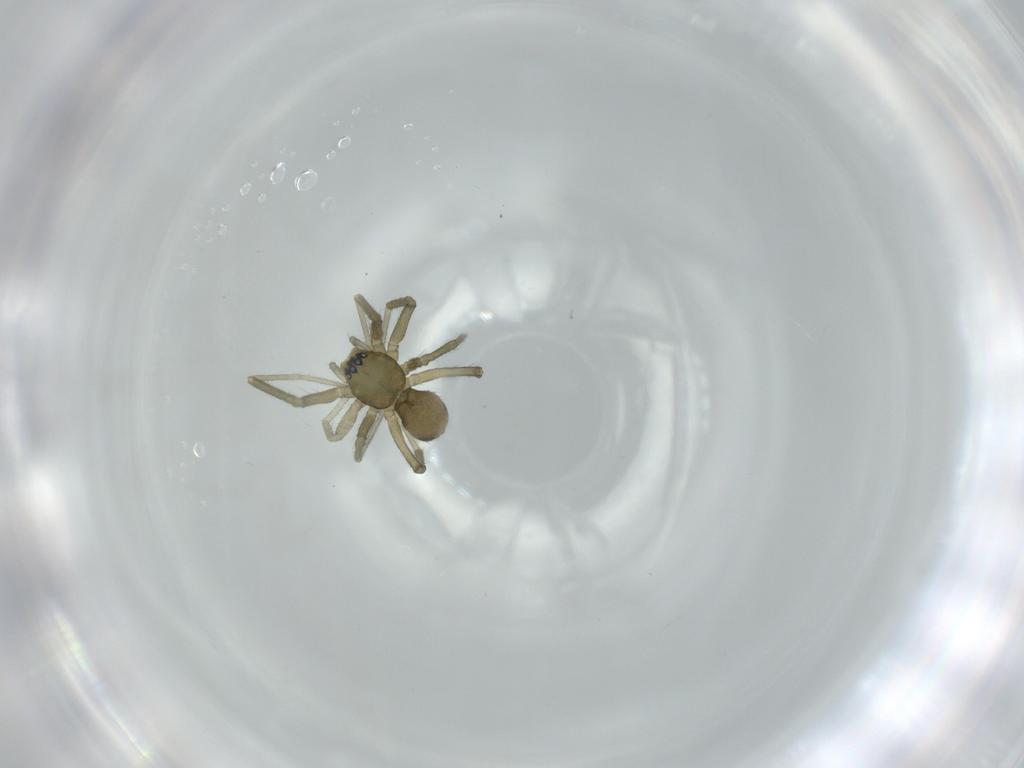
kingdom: Animalia
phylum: Arthropoda
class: Arachnida
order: Araneae
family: Linyphiidae
